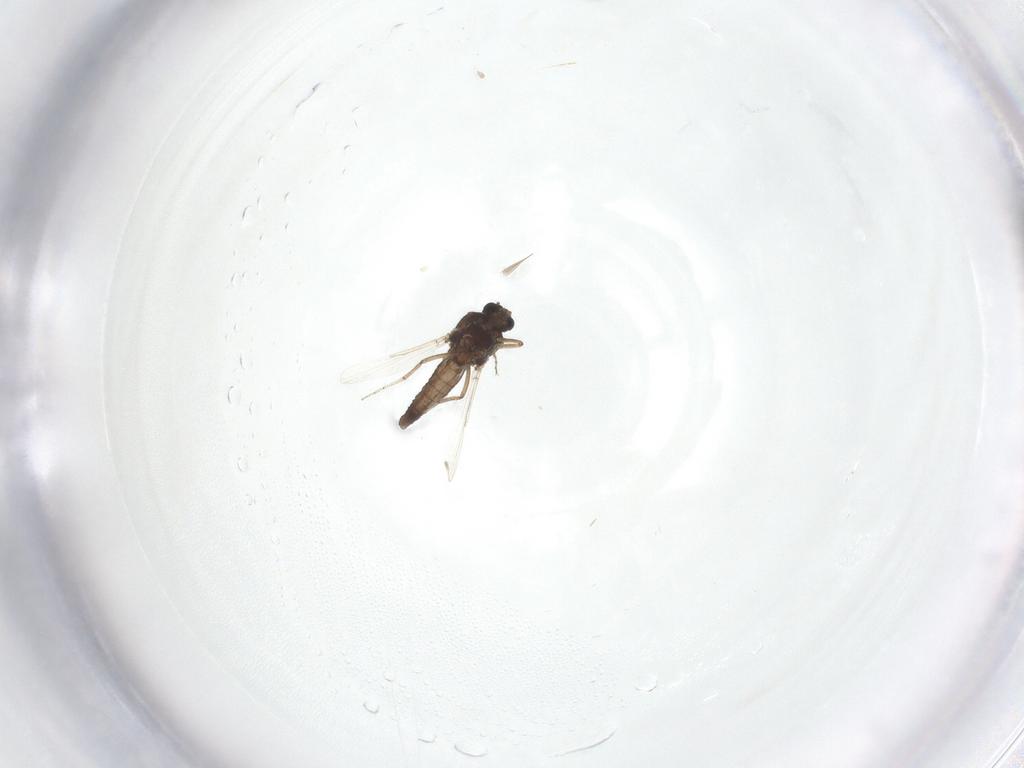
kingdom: Animalia
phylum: Arthropoda
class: Insecta
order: Diptera
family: Ceratopogonidae
